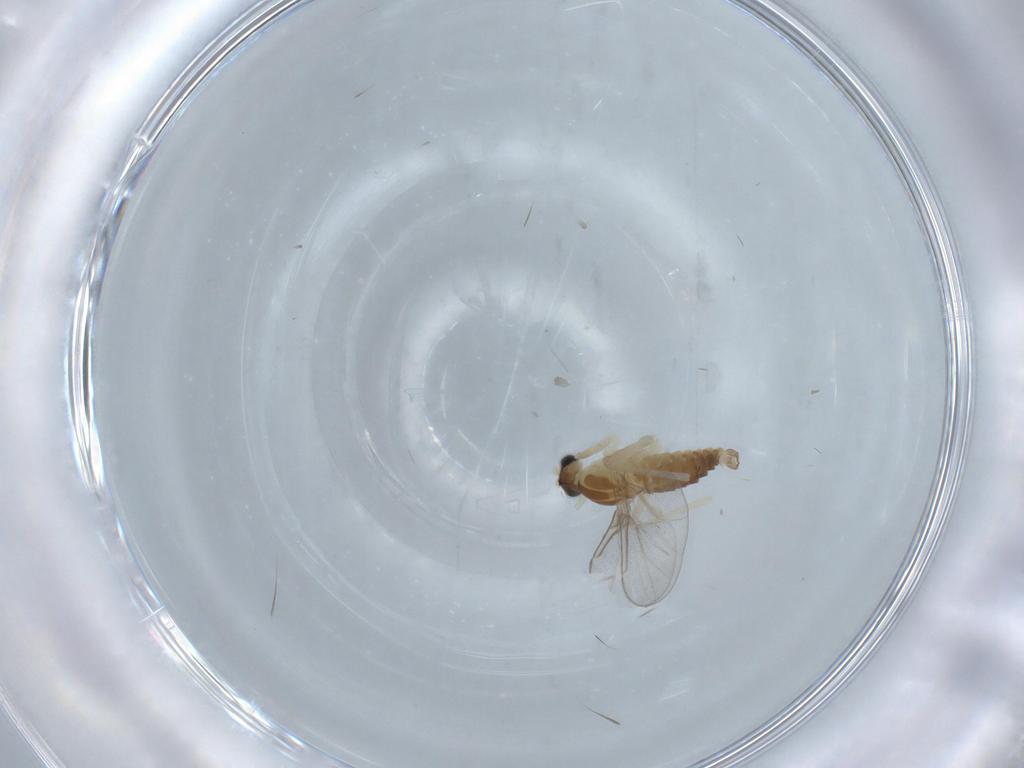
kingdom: Animalia
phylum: Arthropoda
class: Insecta
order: Diptera
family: Cecidomyiidae
